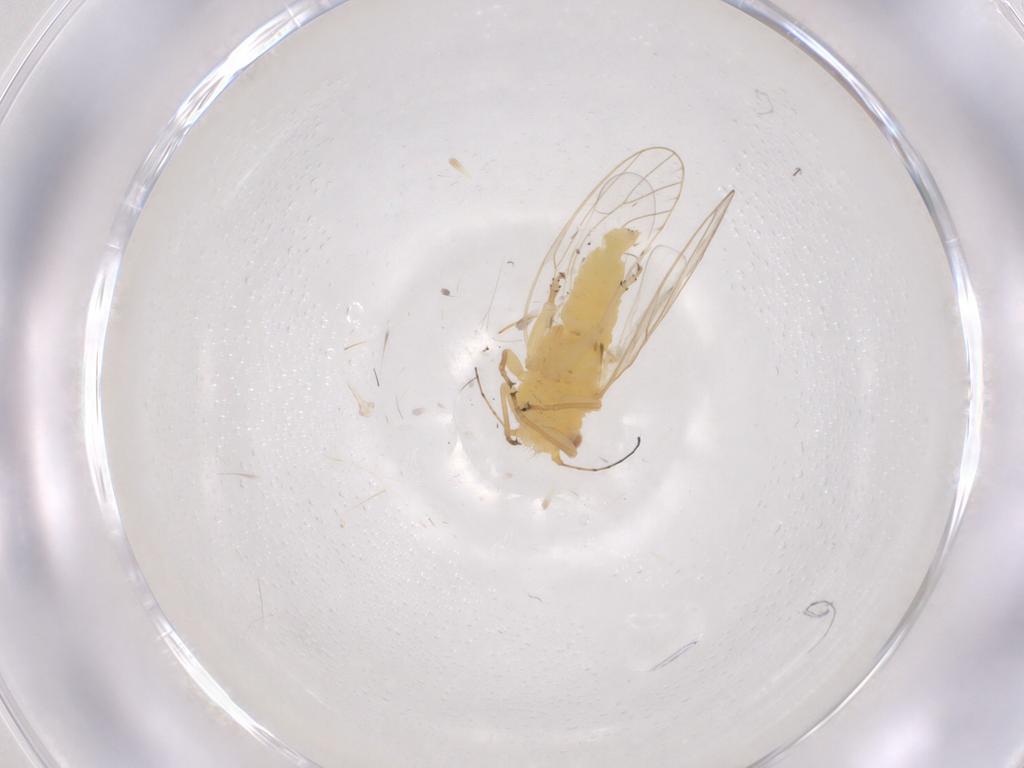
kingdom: Animalia
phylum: Arthropoda
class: Insecta
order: Hemiptera
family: Psyllidae
